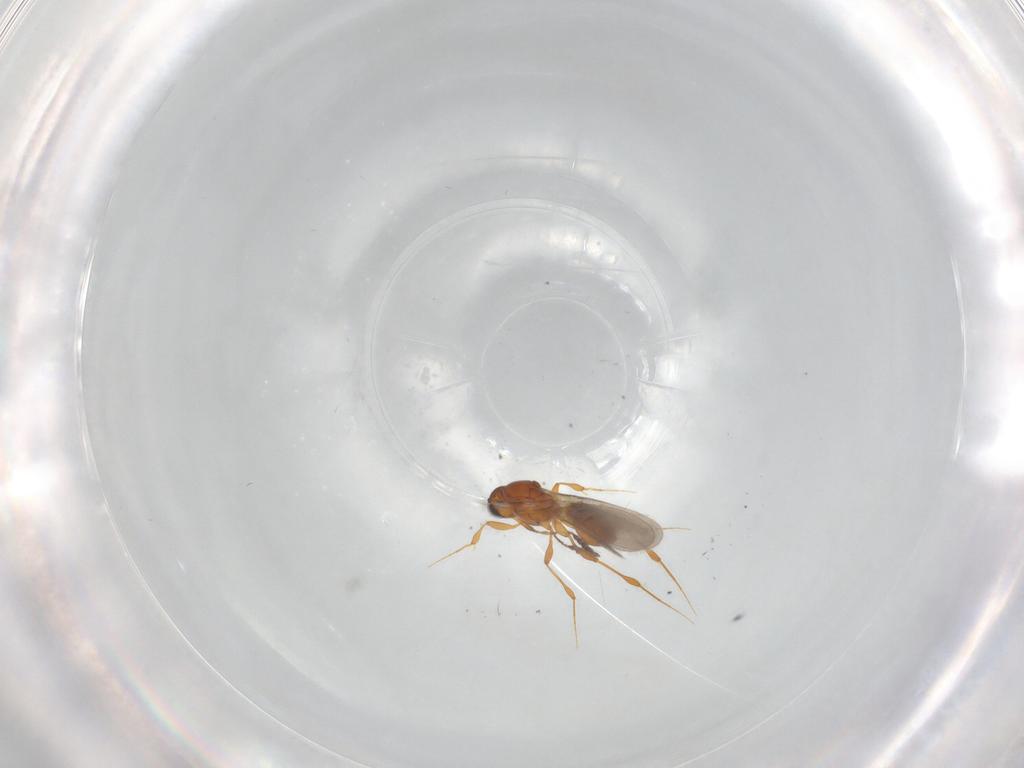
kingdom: Animalia
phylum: Arthropoda
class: Insecta
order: Hymenoptera
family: Platygastridae
